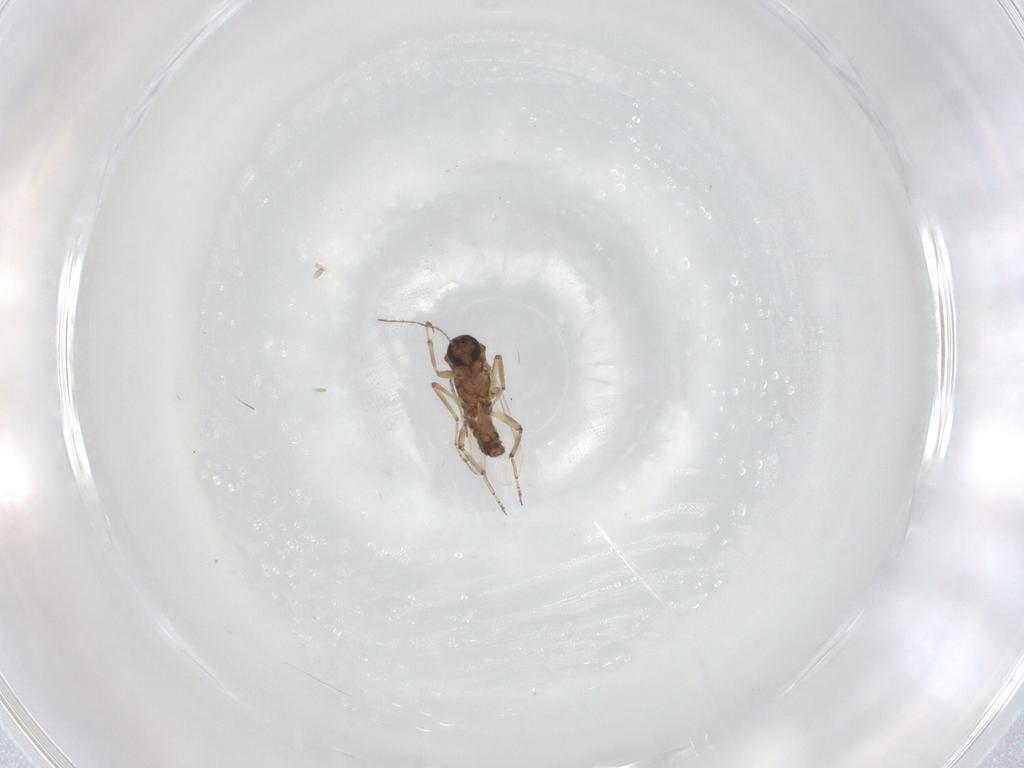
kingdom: Animalia
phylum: Arthropoda
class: Insecta
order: Diptera
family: Ceratopogonidae
